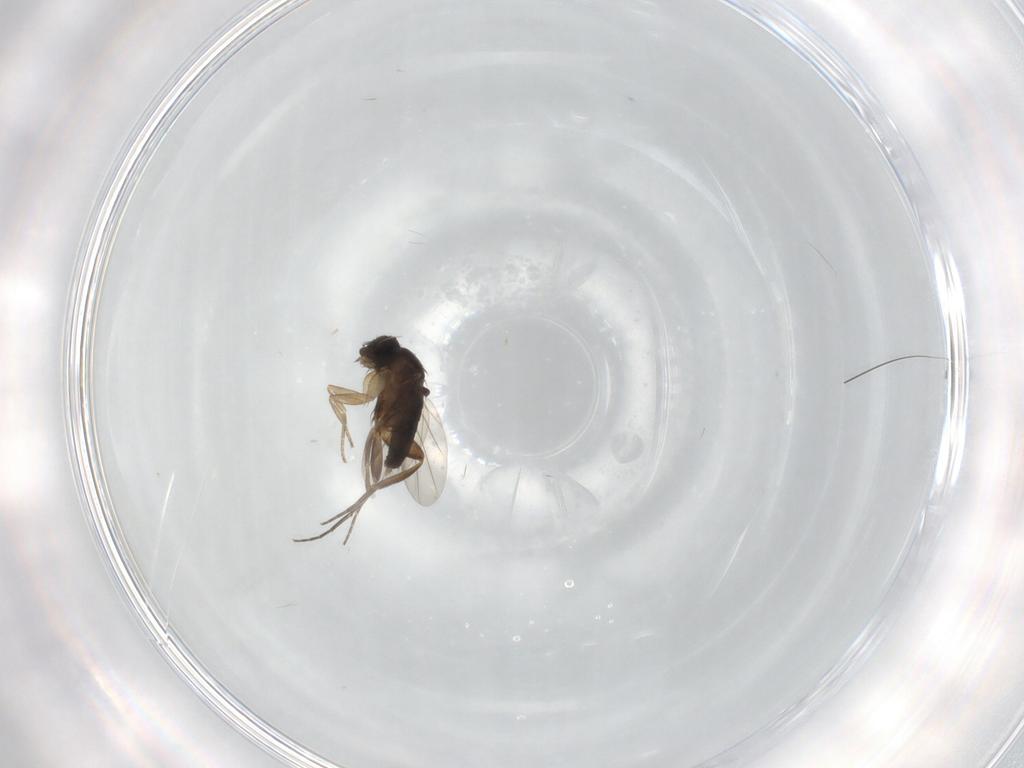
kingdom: Animalia
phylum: Arthropoda
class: Insecta
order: Diptera
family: Phoridae
